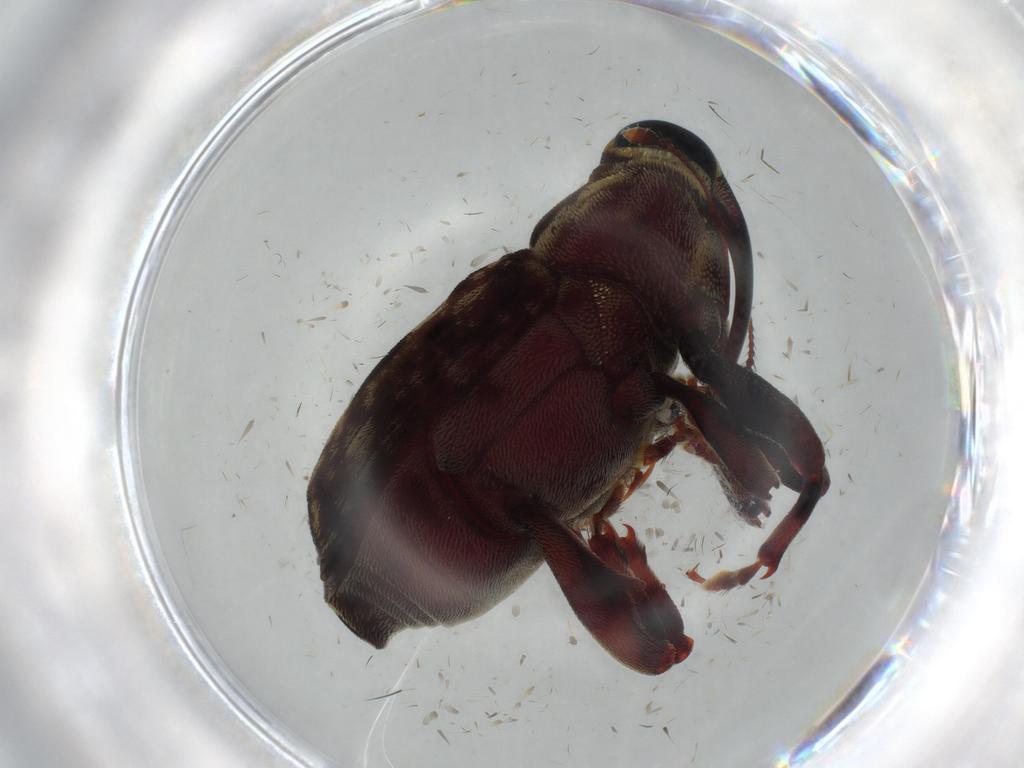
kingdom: Animalia
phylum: Arthropoda
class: Insecta
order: Coleoptera
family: Curculionidae
